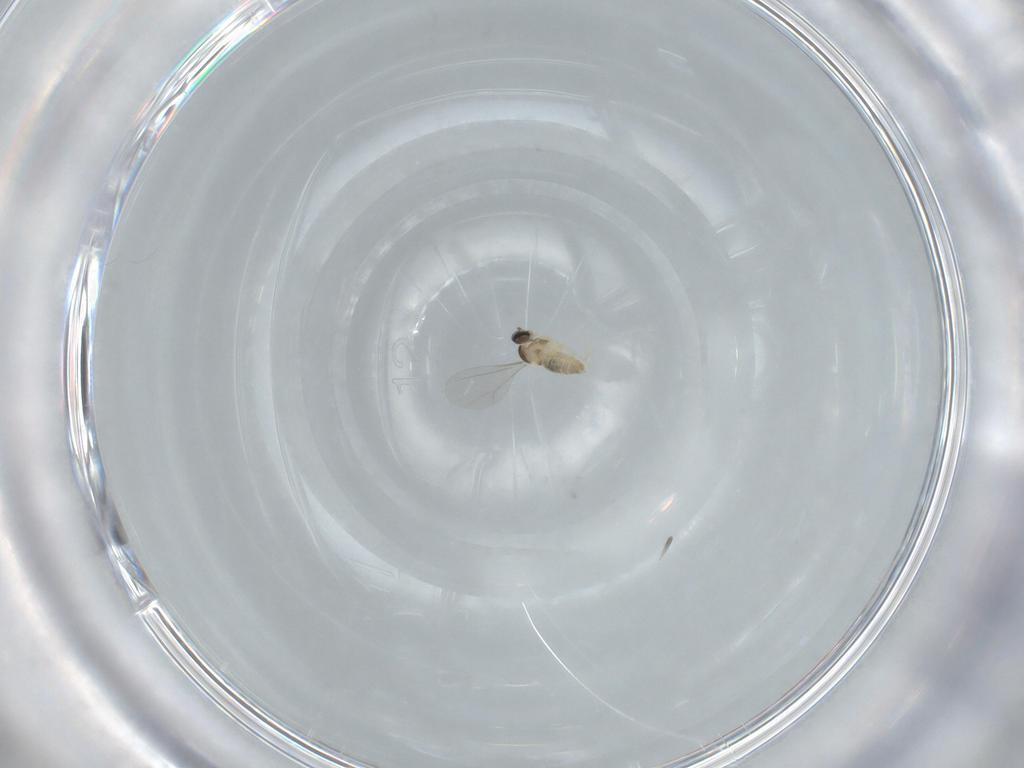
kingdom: Animalia
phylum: Arthropoda
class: Insecta
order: Diptera
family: Cecidomyiidae
